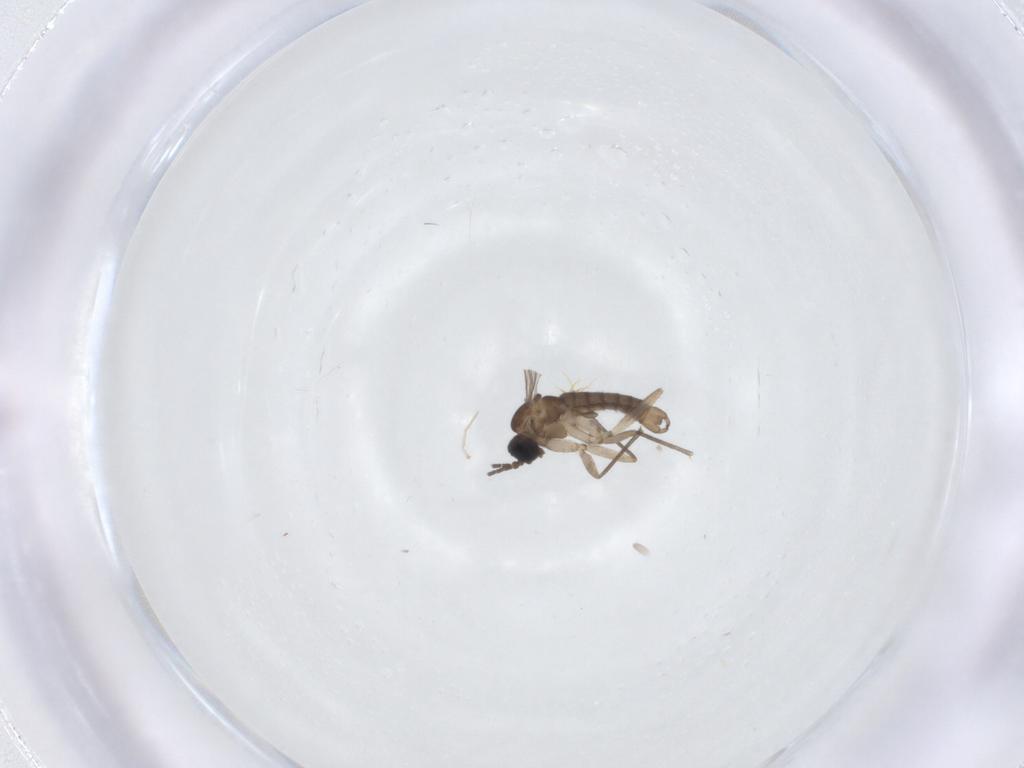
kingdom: Animalia
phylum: Arthropoda
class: Insecta
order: Diptera
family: Cecidomyiidae
